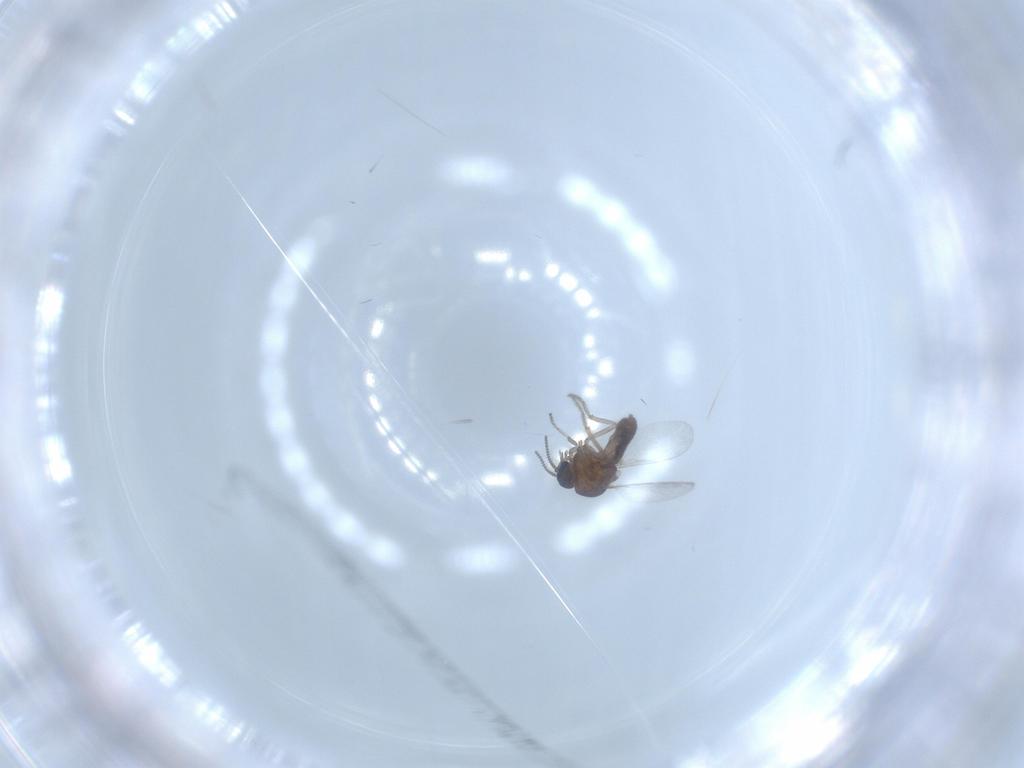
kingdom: Animalia
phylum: Arthropoda
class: Insecta
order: Diptera
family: Ceratopogonidae
